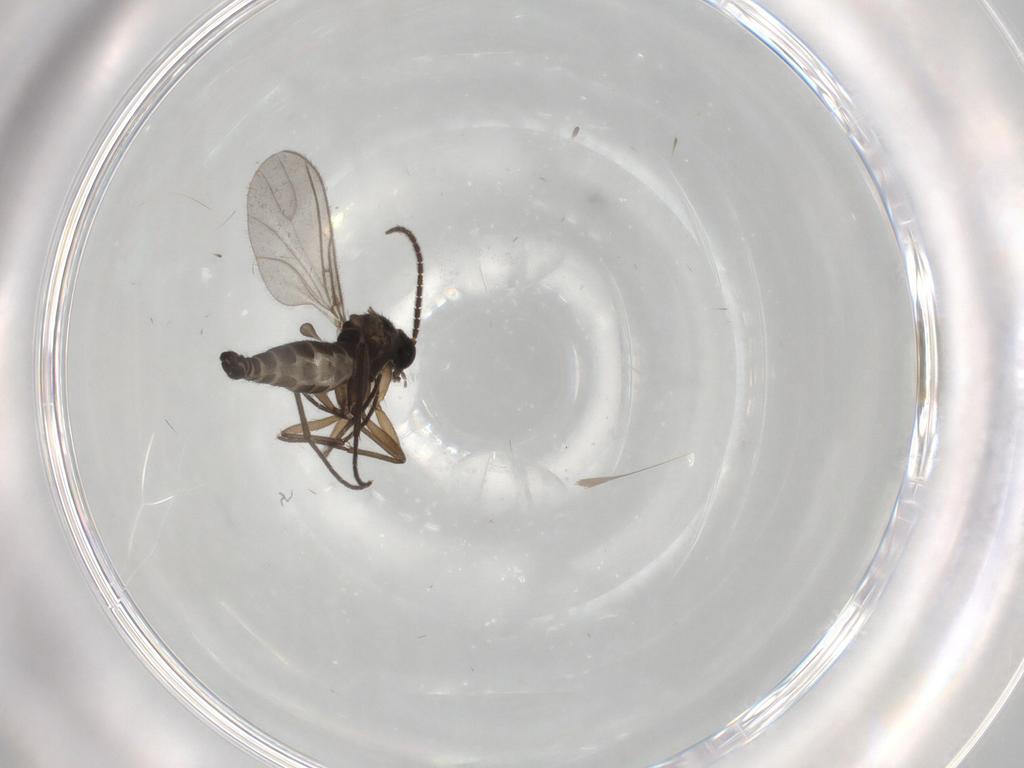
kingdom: Animalia
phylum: Arthropoda
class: Insecta
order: Diptera
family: Sciaridae
